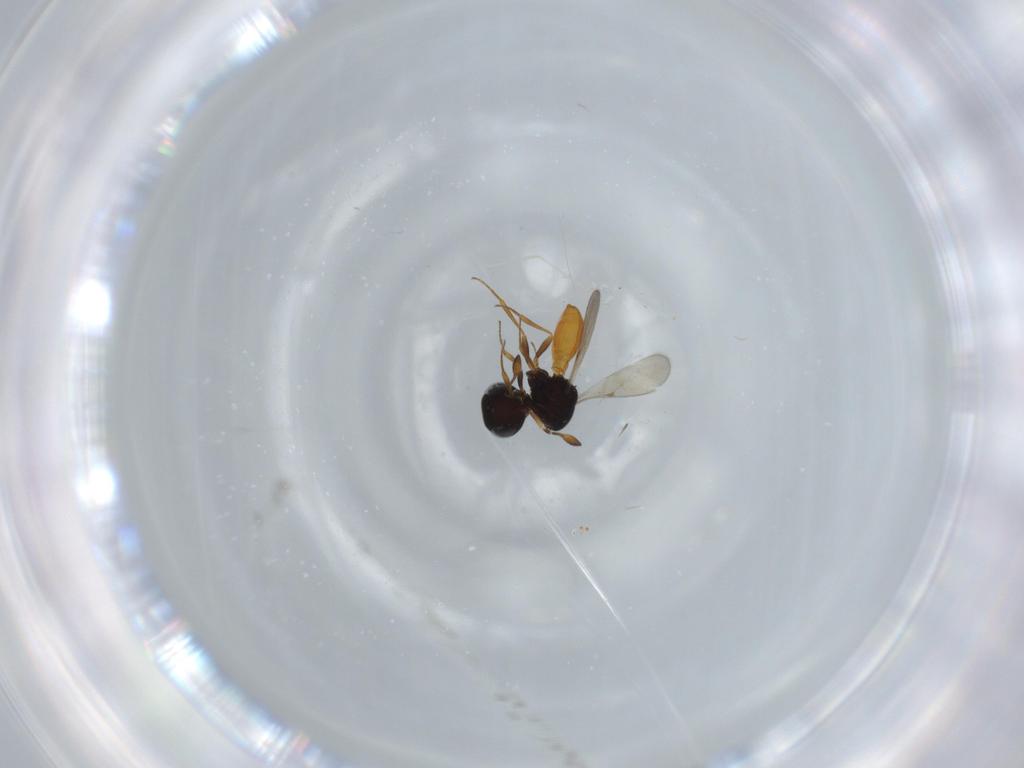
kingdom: Animalia
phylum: Arthropoda
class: Insecta
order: Hymenoptera
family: Scelionidae
